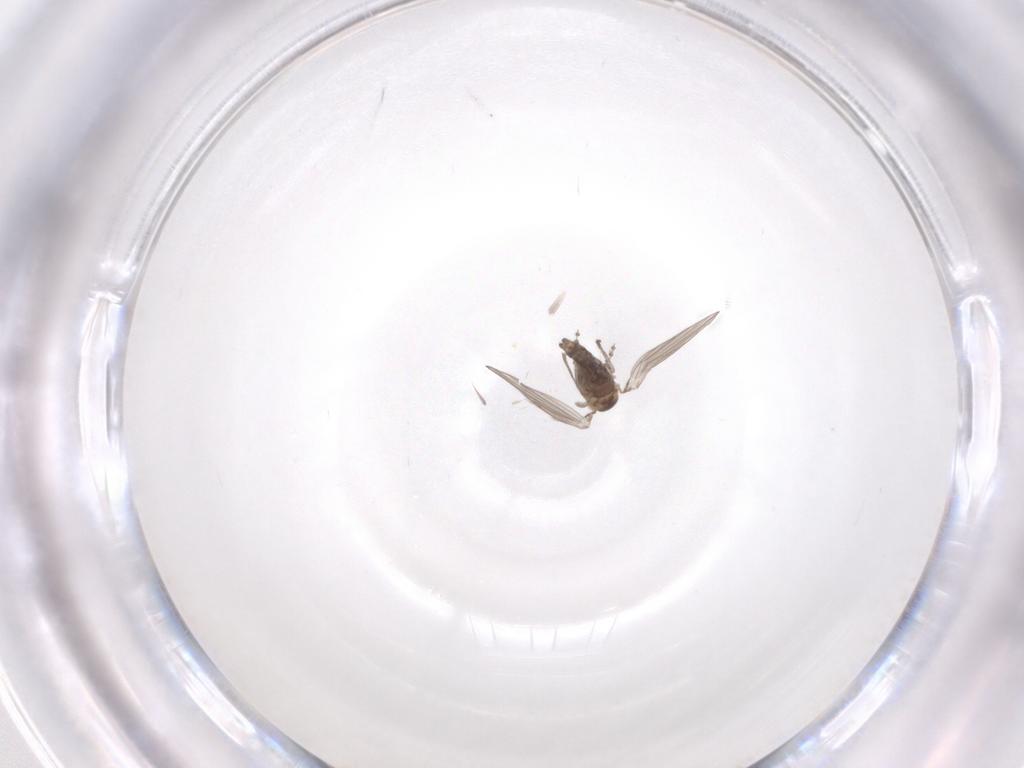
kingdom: Animalia
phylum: Arthropoda
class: Insecta
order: Diptera
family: Psychodidae
